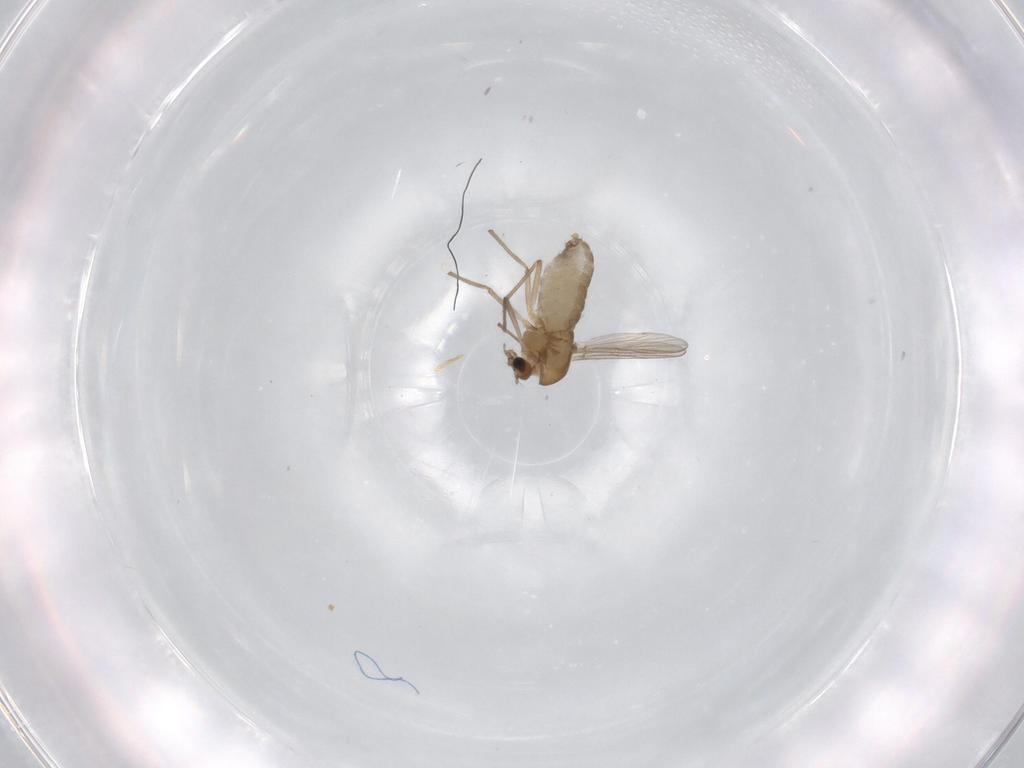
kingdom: Animalia
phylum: Arthropoda
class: Insecta
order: Diptera
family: Chironomidae
